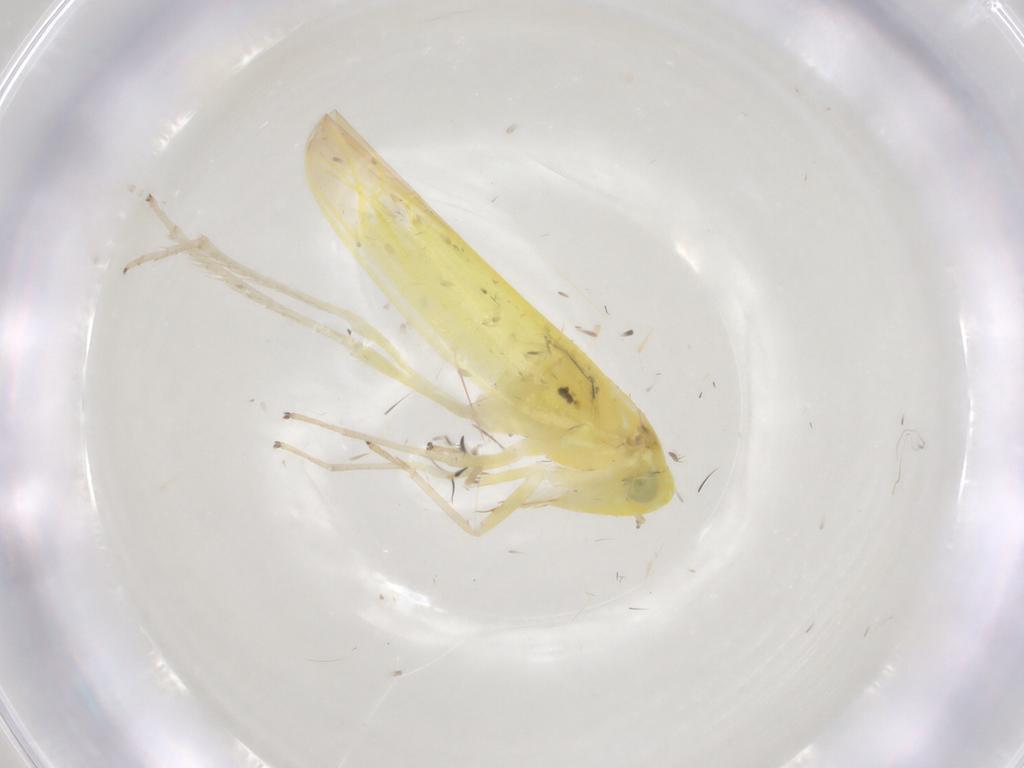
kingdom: Animalia
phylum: Arthropoda
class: Insecta
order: Hemiptera
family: Cicadellidae
